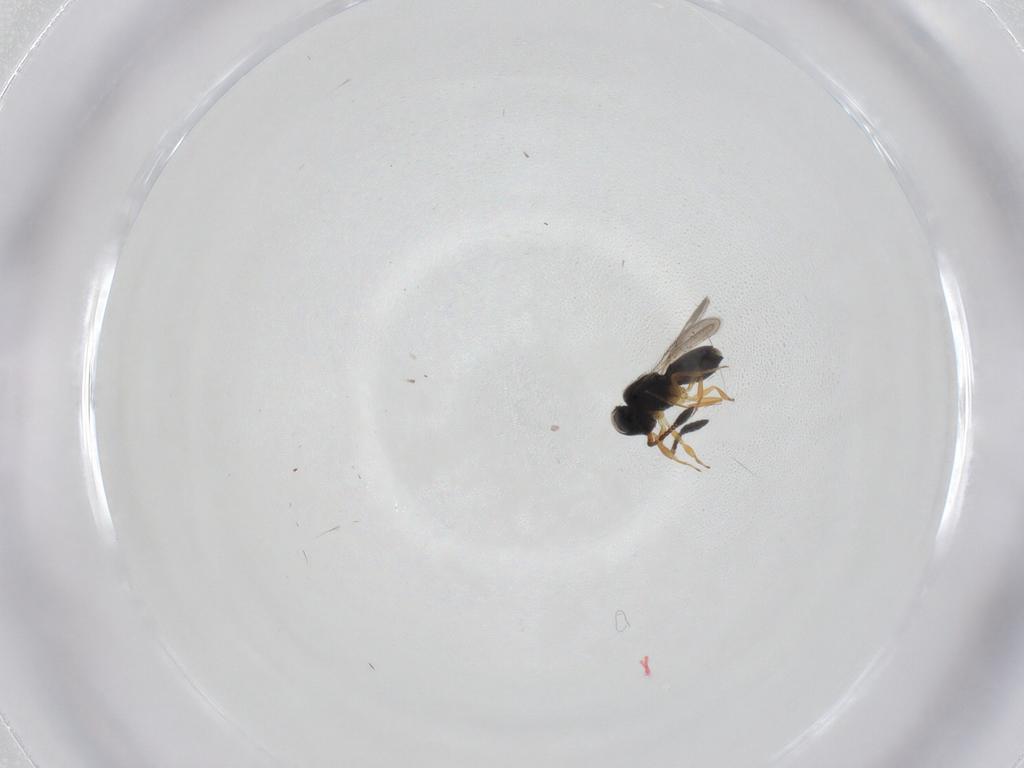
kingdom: Animalia
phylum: Arthropoda
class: Insecta
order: Hymenoptera
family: Scelionidae
